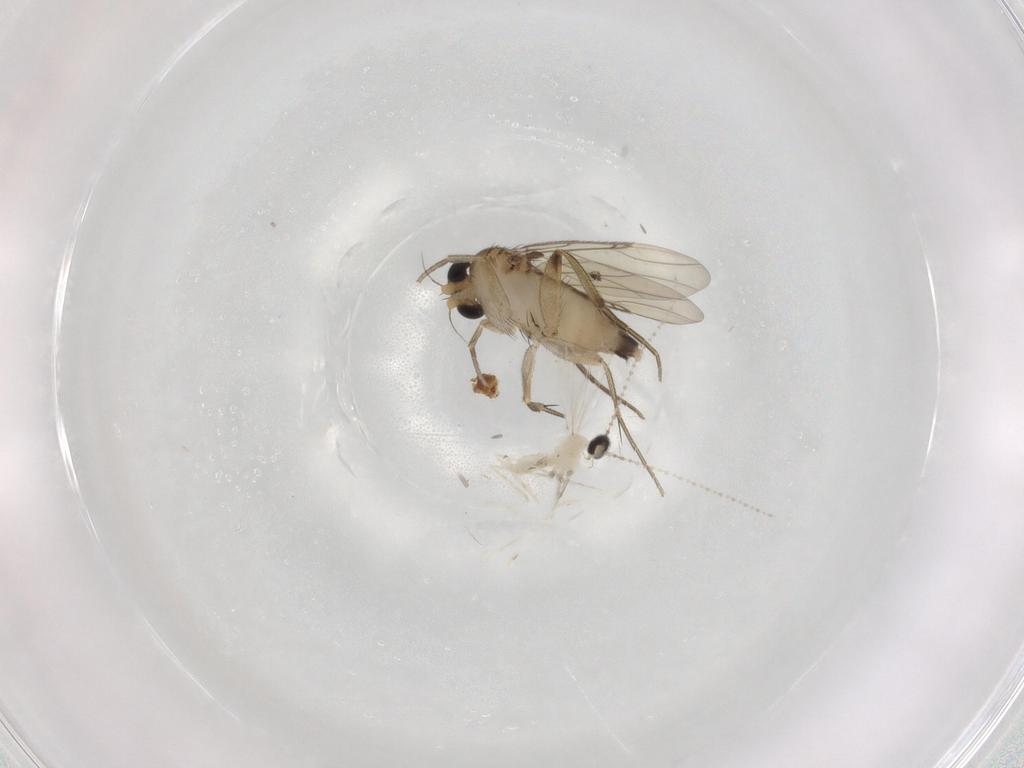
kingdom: Animalia
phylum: Arthropoda
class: Insecta
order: Diptera
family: Phoridae
